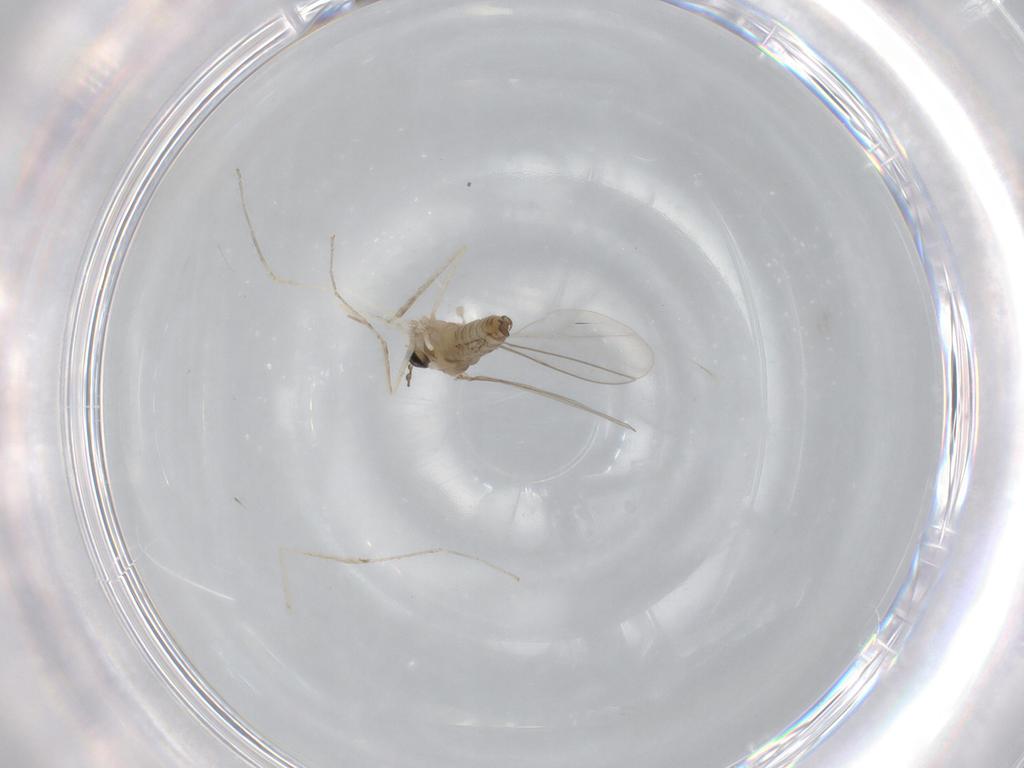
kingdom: Animalia
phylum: Arthropoda
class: Insecta
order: Diptera
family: Cecidomyiidae
